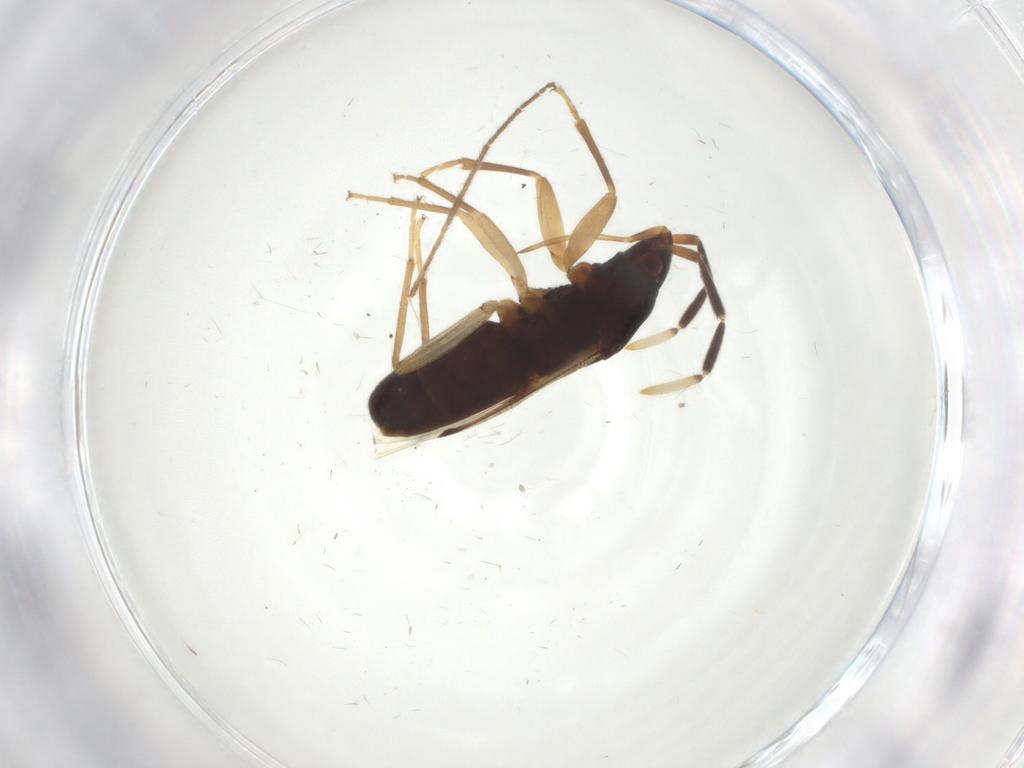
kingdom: Animalia
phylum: Arthropoda
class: Insecta
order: Hemiptera
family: Rhyparochromidae
